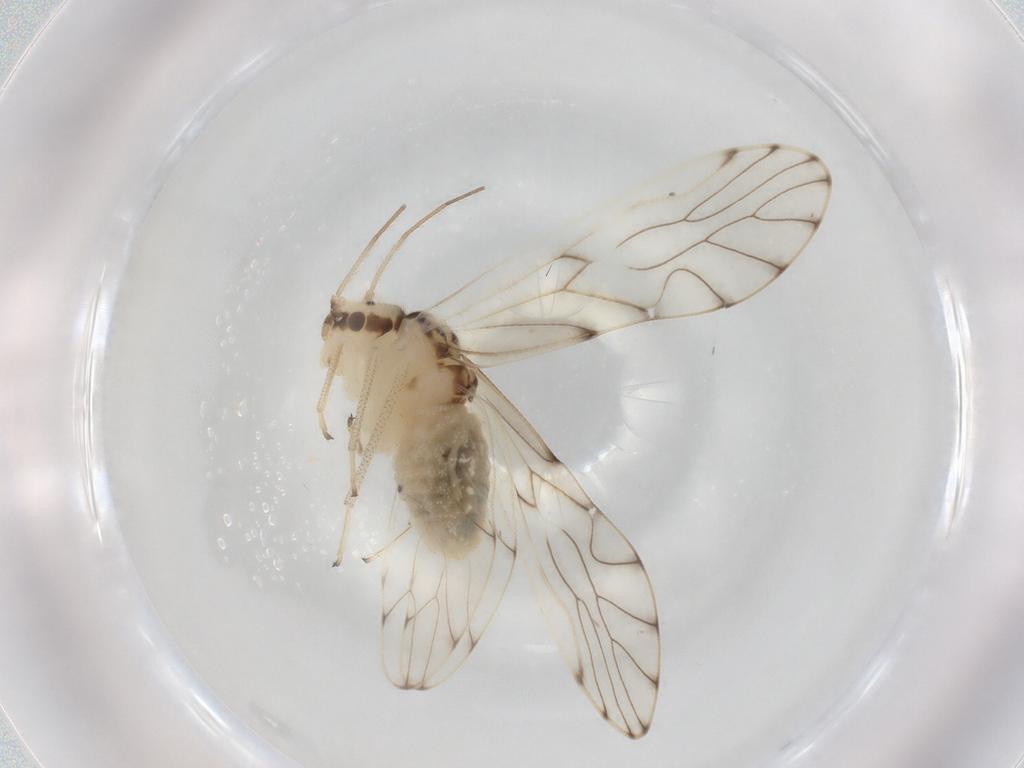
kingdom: Animalia
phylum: Arthropoda
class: Insecta
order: Psocodea
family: Philotarsidae
